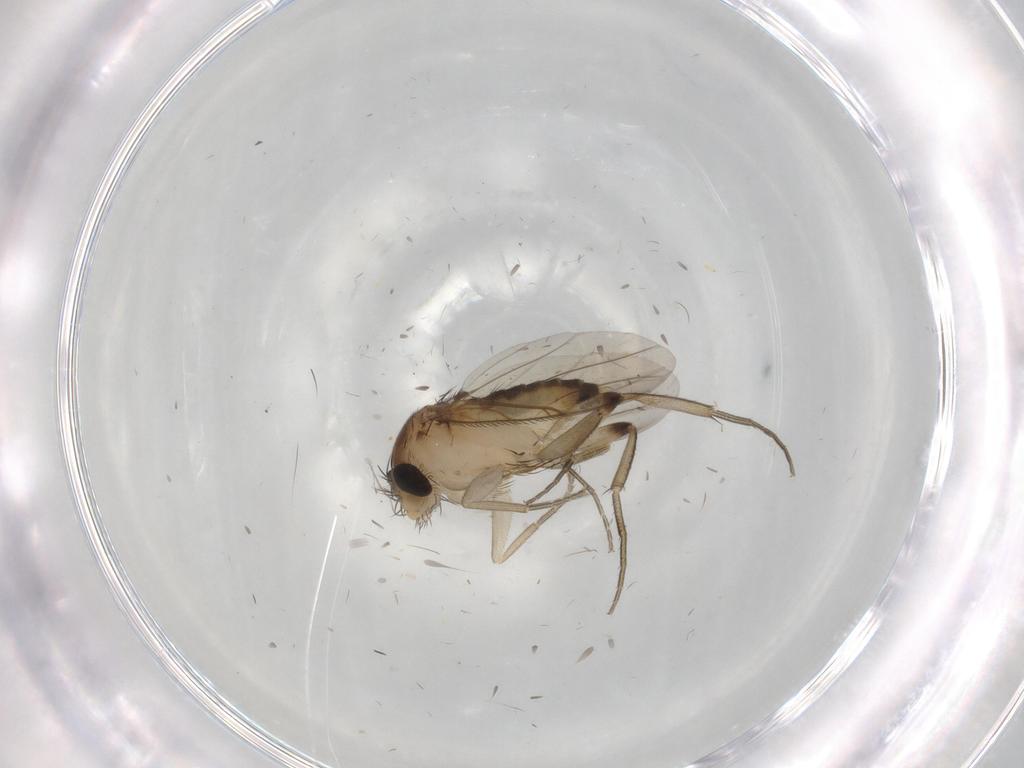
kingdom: Animalia
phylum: Arthropoda
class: Insecta
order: Diptera
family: Phoridae
